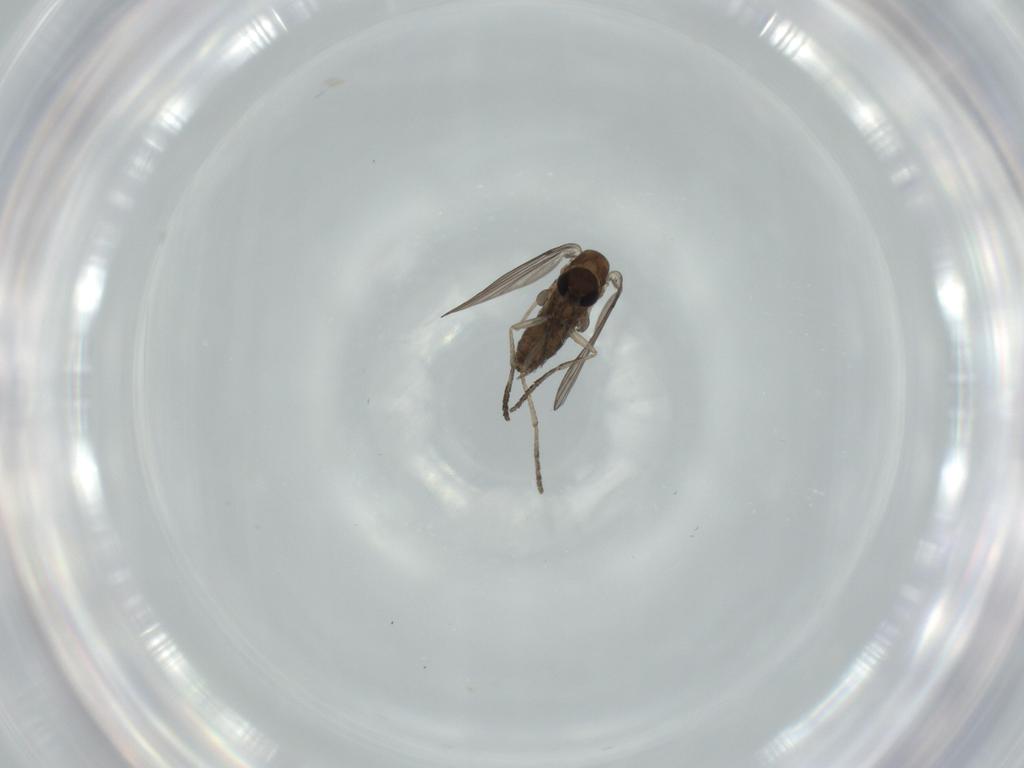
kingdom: Animalia
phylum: Arthropoda
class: Insecta
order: Diptera
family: Psychodidae
